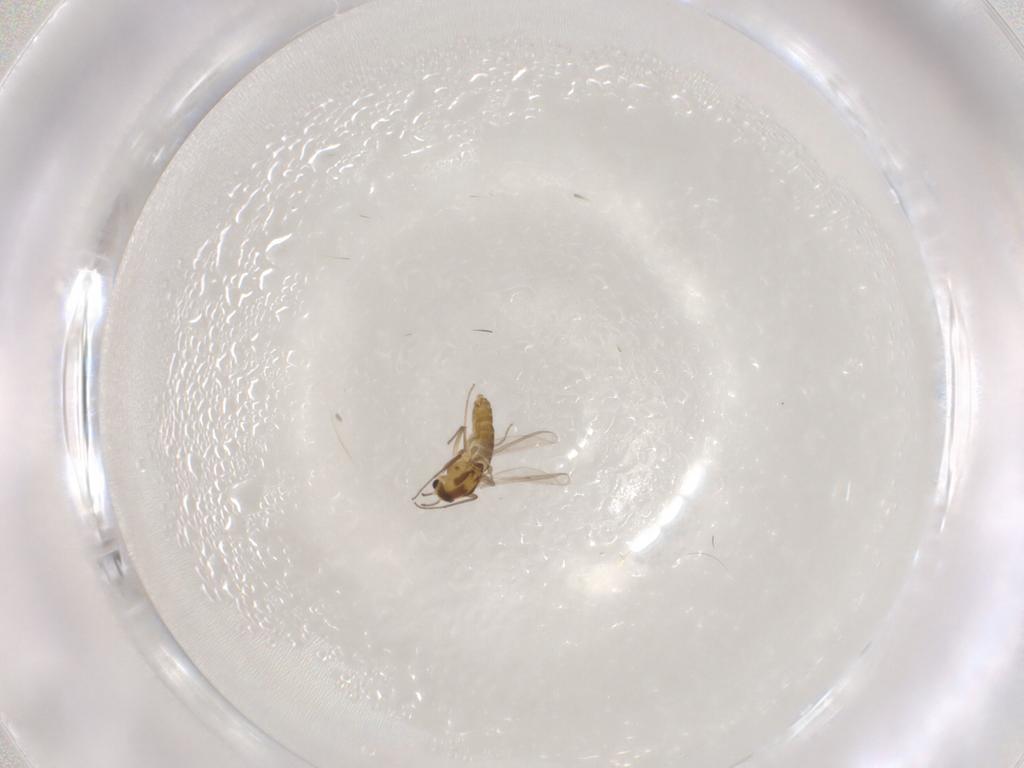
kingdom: Animalia
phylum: Arthropoda
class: Insecta
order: Diptera
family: Chironomidae
